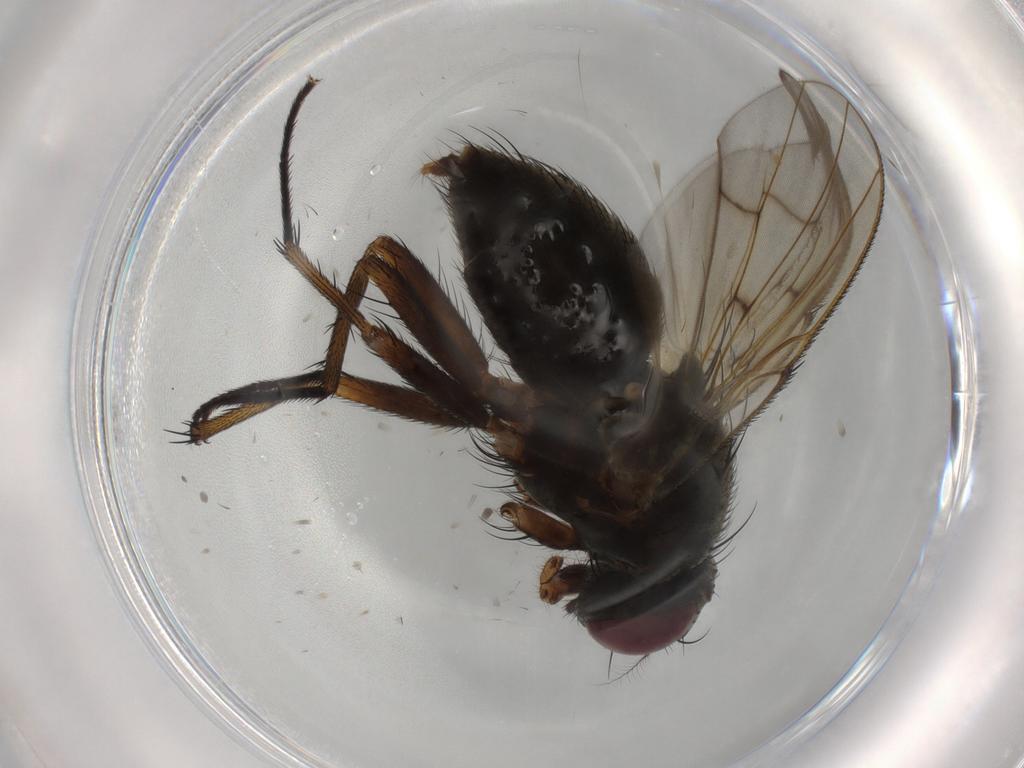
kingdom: Animalia
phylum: Arthropoda
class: Insecta
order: Diptera
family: Muscidae
